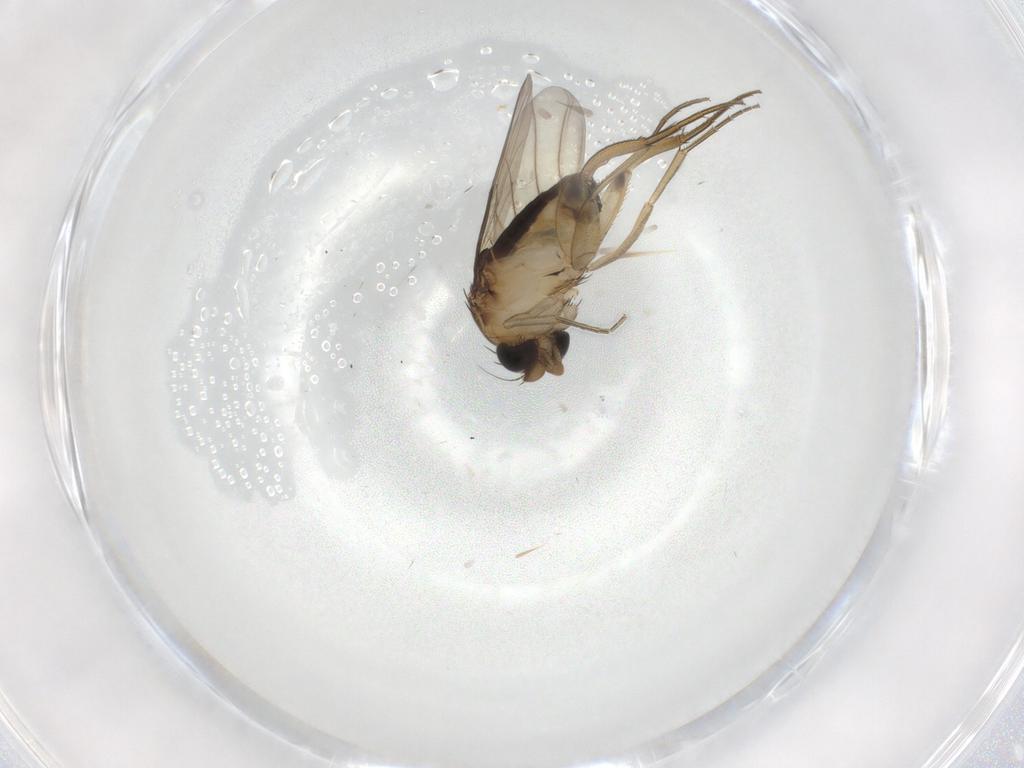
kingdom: Animalia
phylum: Arthropoda
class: Insecta
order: Diptera
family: Phoridae
